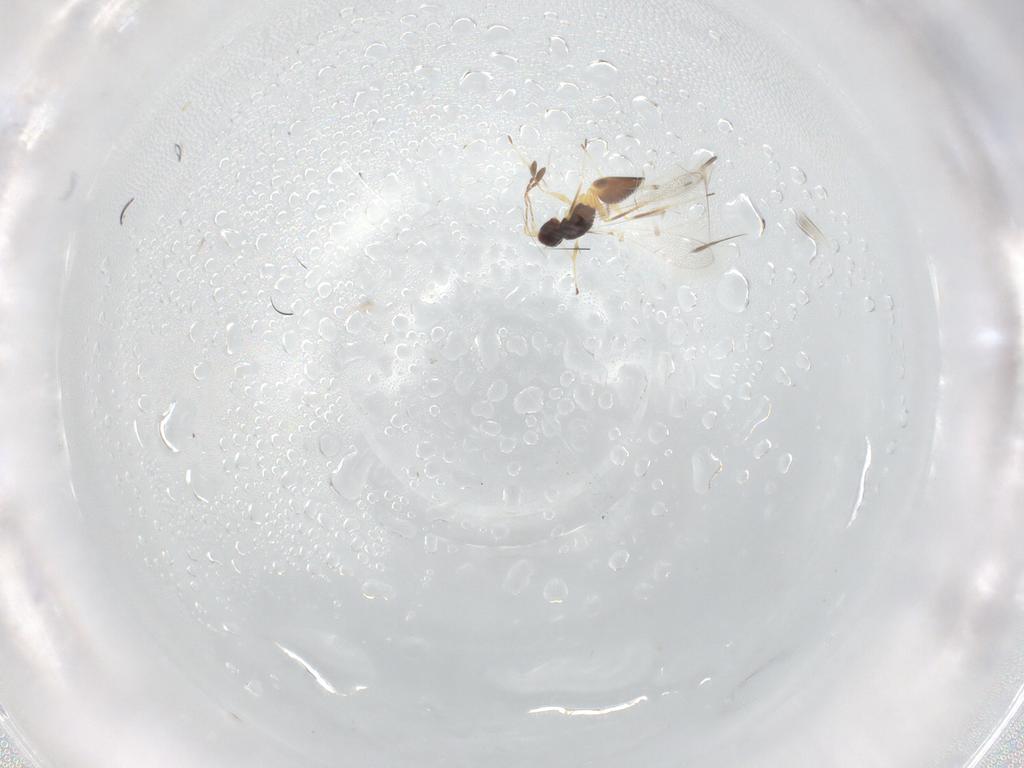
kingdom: Animalia
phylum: Arthropoda
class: Insecta
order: Hymenoptera
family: Mymaridae
